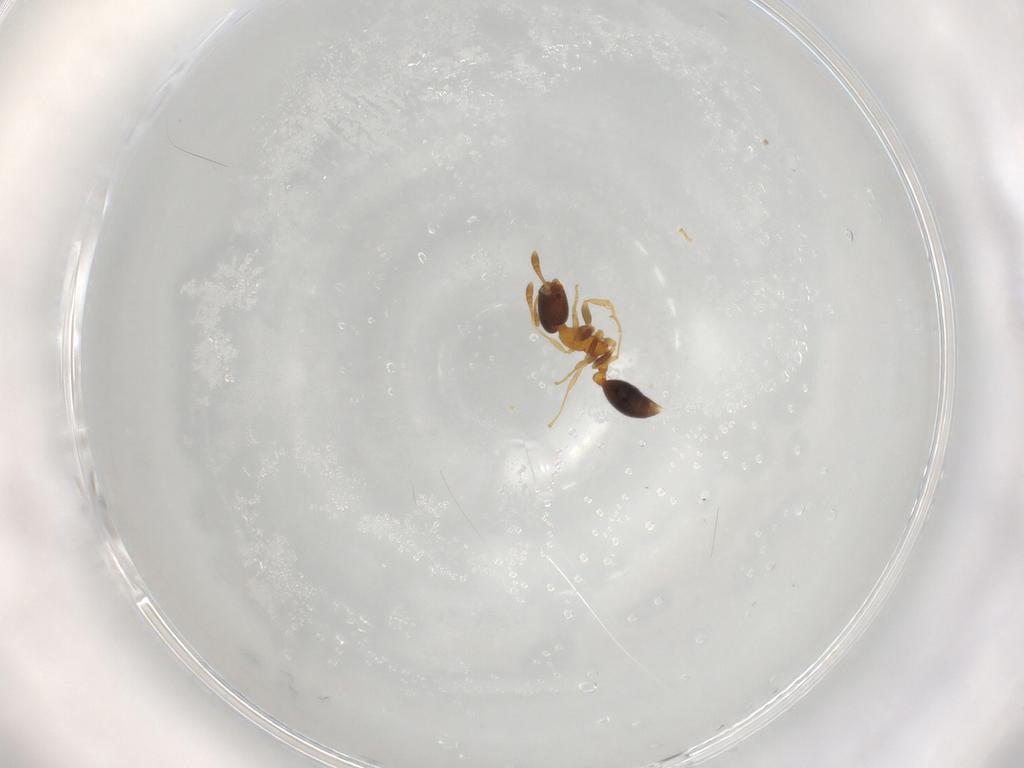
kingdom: Animalia
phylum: Arthropoda
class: Insecta
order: Hymenoptera
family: Formicidae
